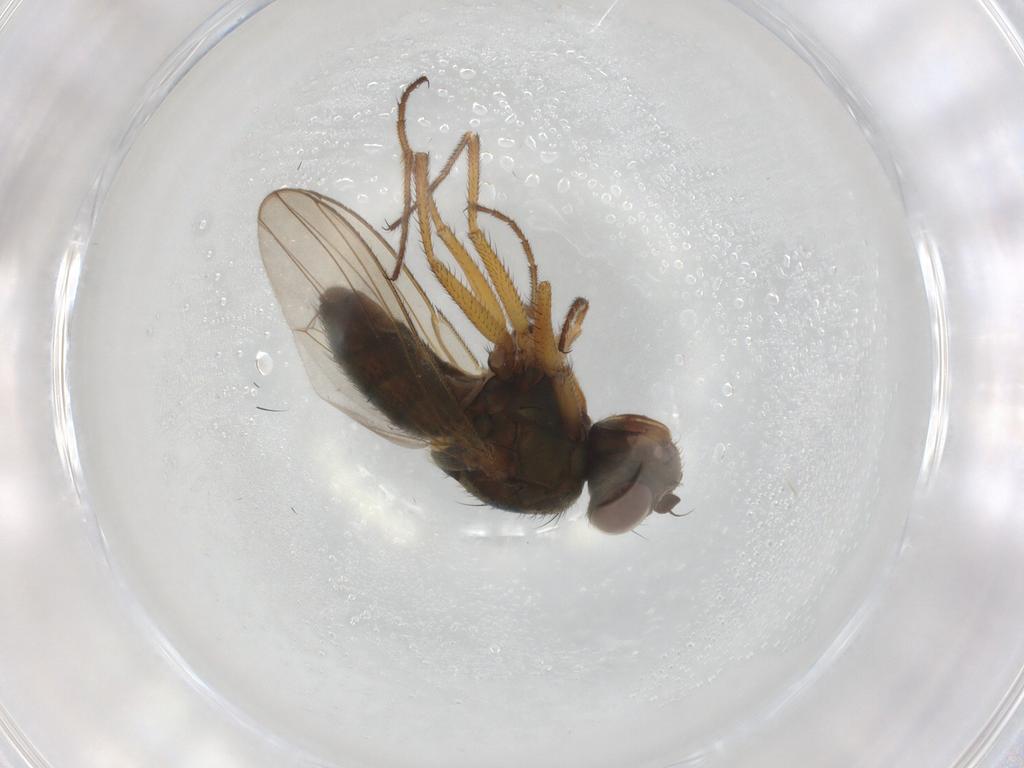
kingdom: Animalia
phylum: Arthropoda
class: Insecta
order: Diptera
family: Ephydridae
